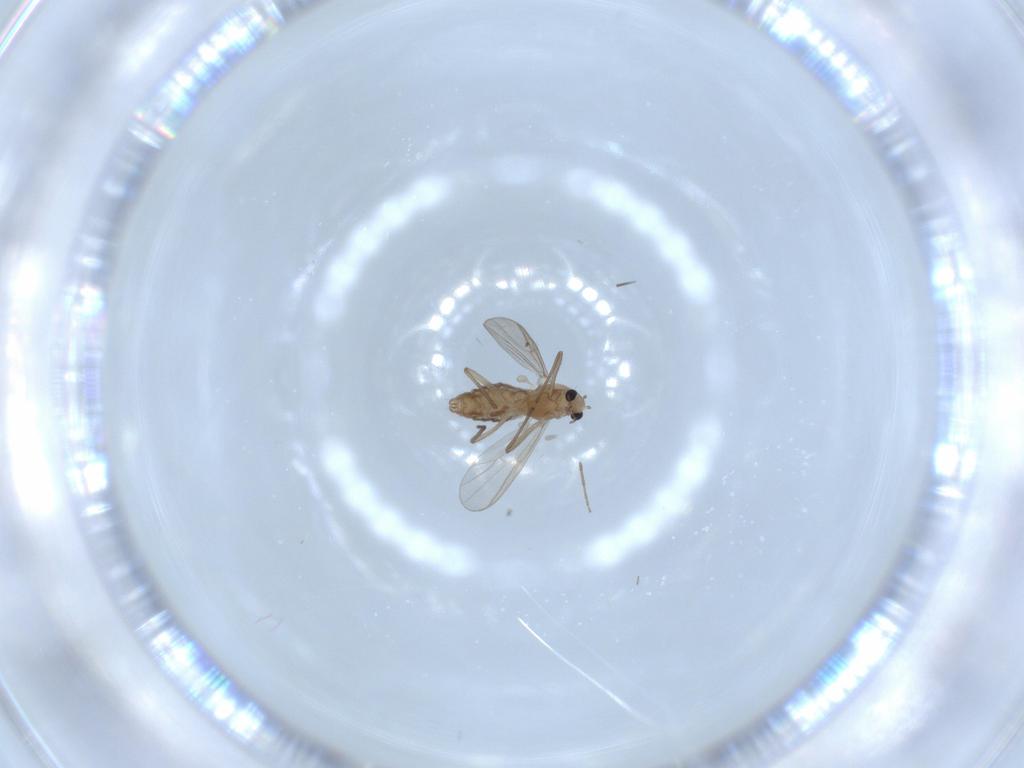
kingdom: Animalia
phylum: Arthropoda
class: Insecta
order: Diptera
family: Chironomidae
